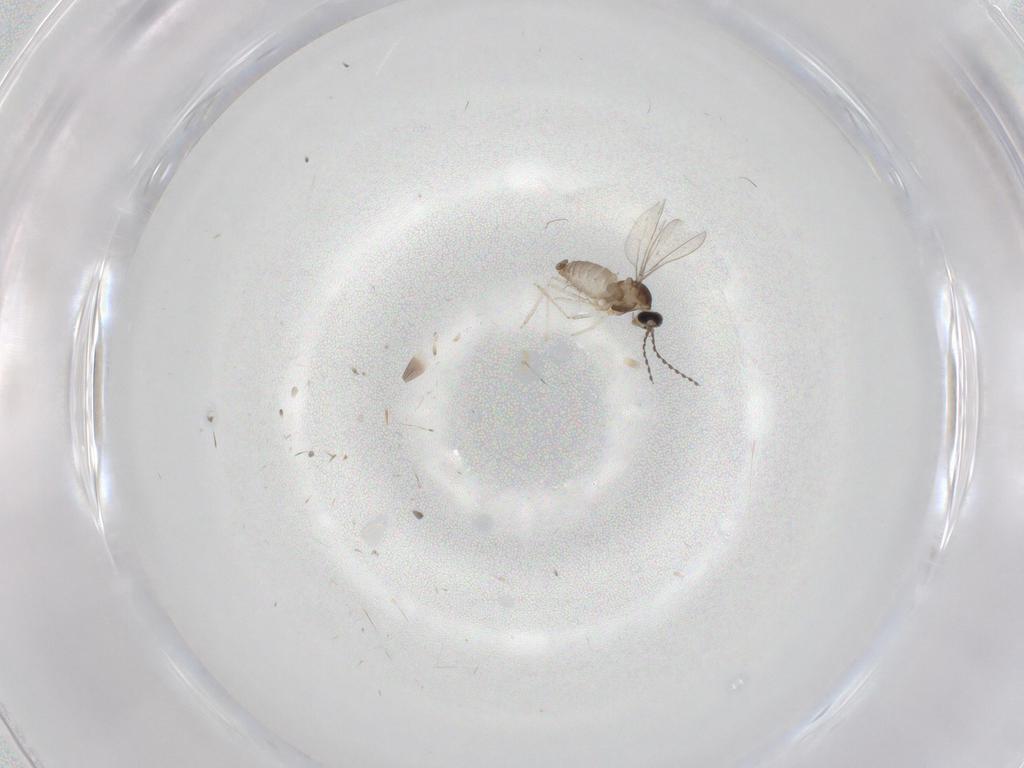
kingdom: Animalia
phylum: Arthropoda
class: Insecta
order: Diptera
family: Cecidomyiidae
